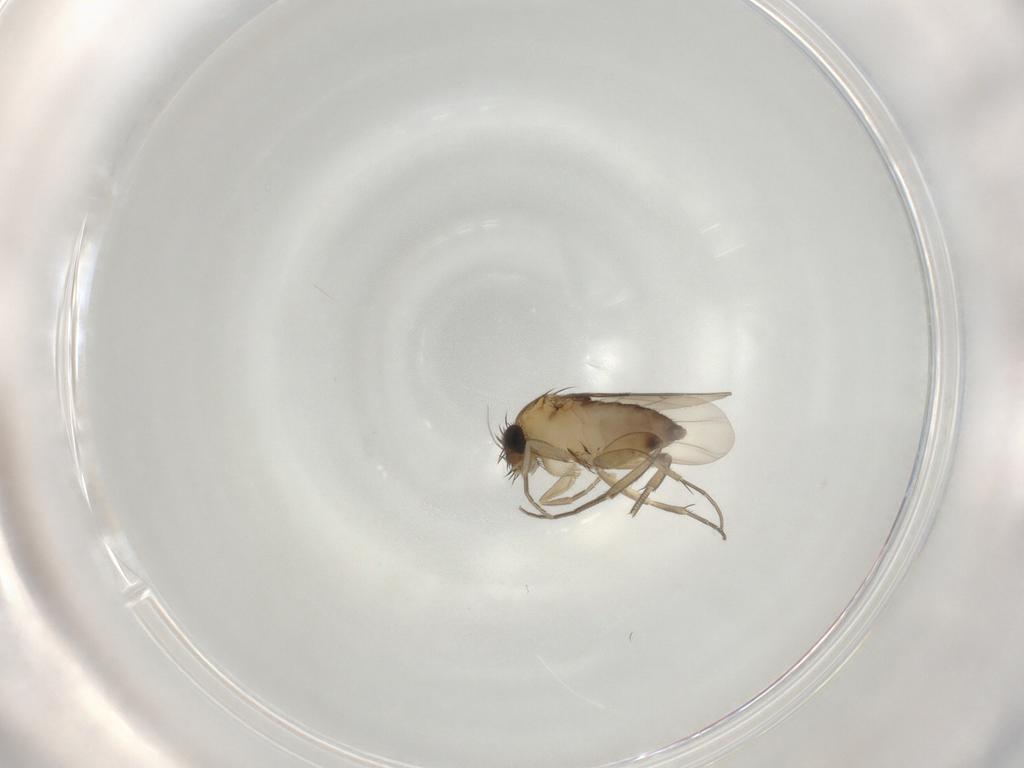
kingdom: Animalia
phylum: Arthropoda
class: Insecta
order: Diptera
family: Phoridae
